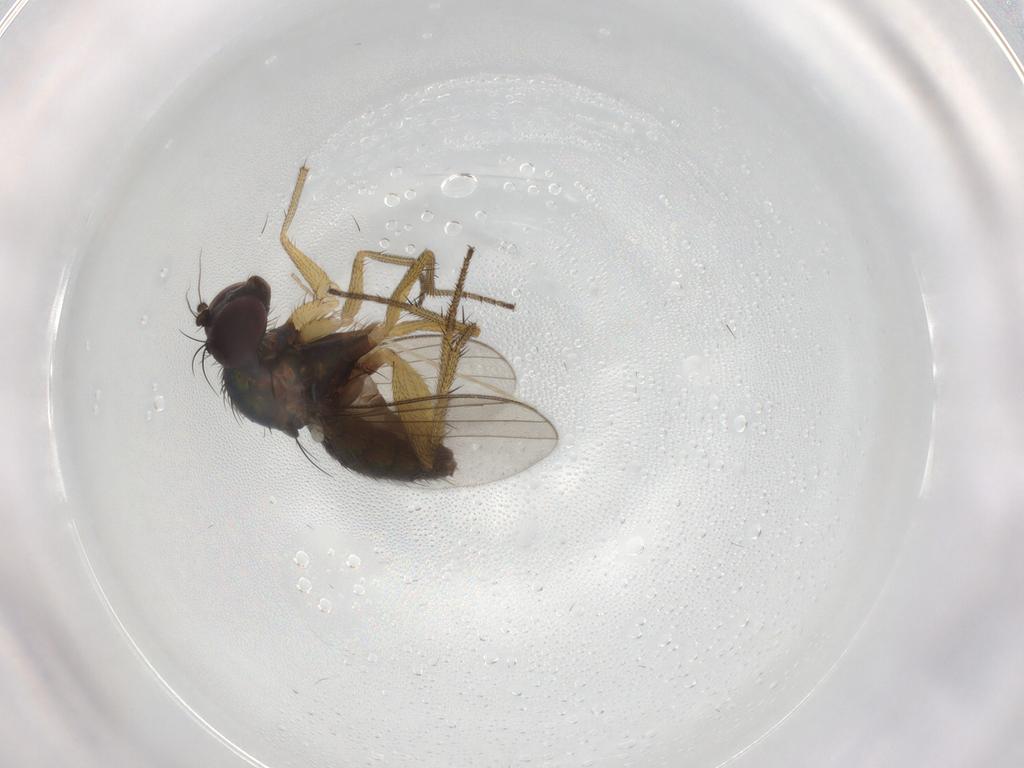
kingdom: Animalia
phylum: Arthropoda
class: Insecta
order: Diptera
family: Dolichopodidae
